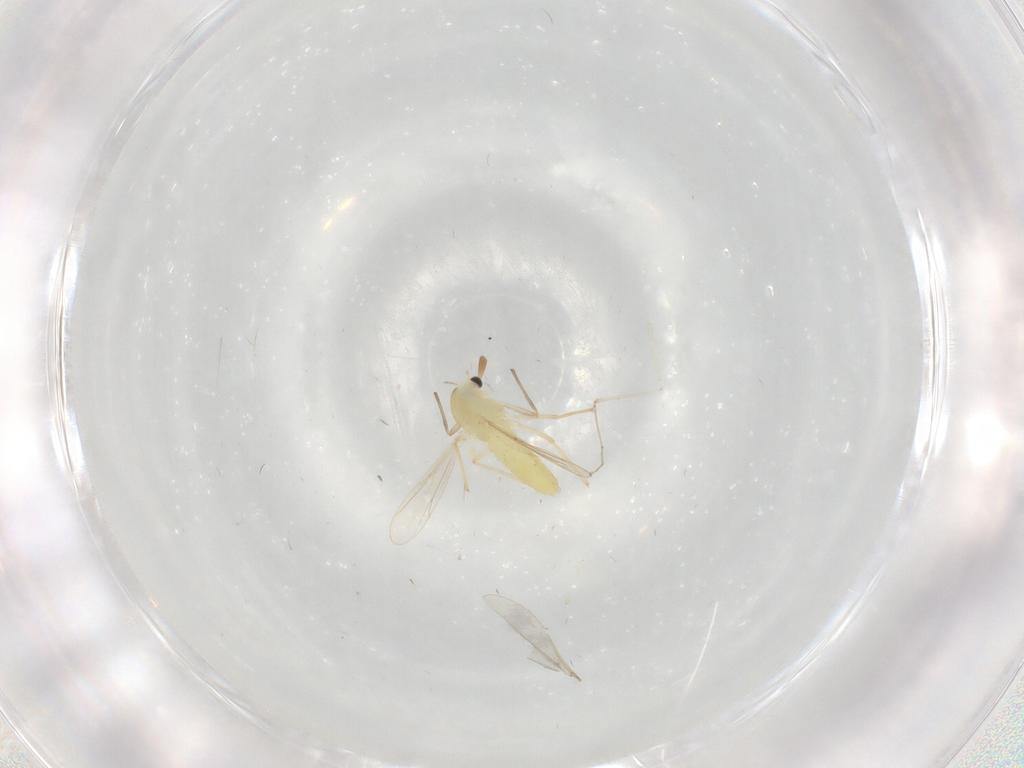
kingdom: Animalia
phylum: Arthropoda
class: Insecta
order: Diptera
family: Chironomidae
